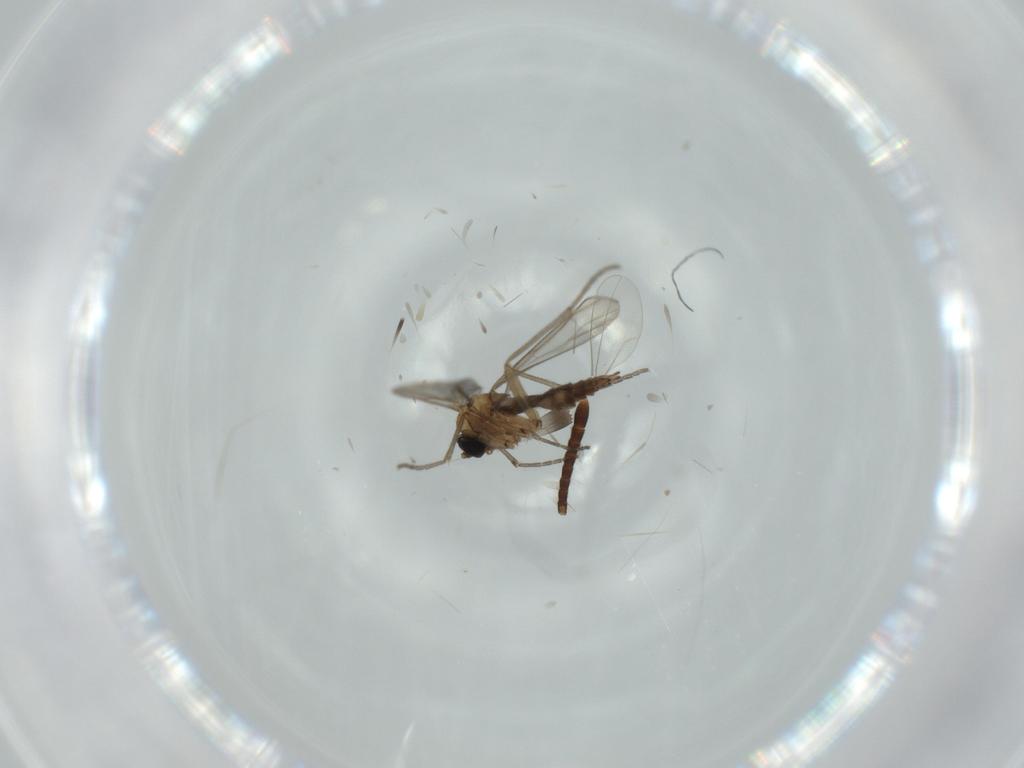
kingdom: Animalia
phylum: Arthropoda
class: Insecta
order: Diptera
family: Sciaridae
